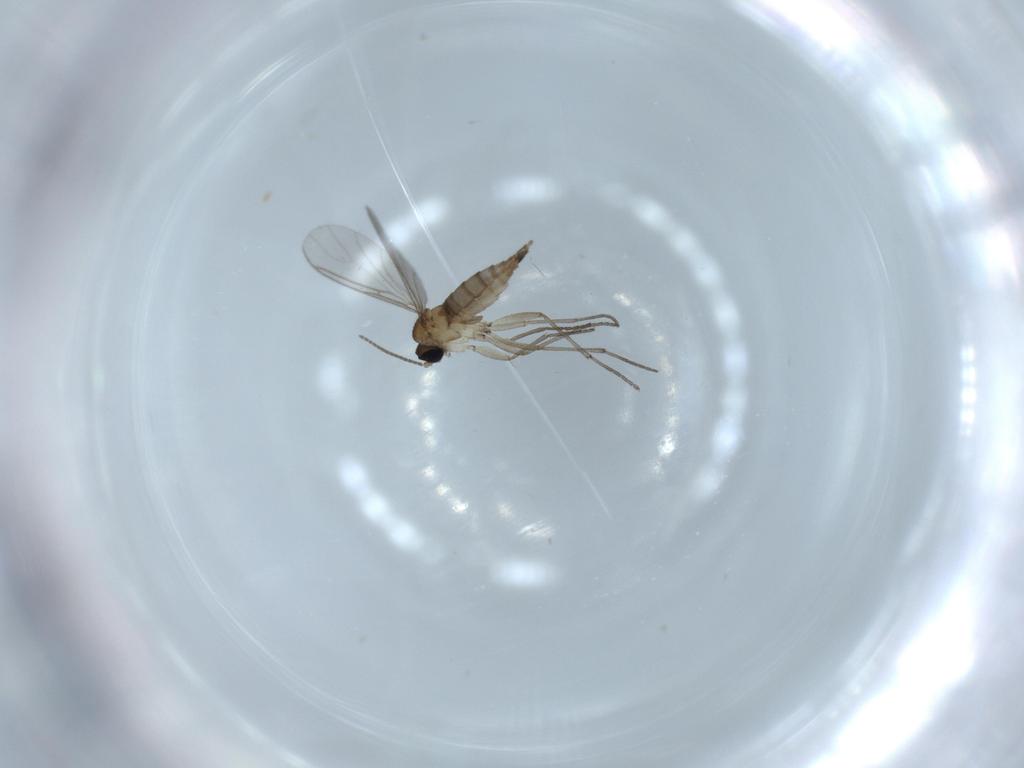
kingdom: Animalia
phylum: Arthropoda
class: Insecta
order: Diptera
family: Sciaridae
